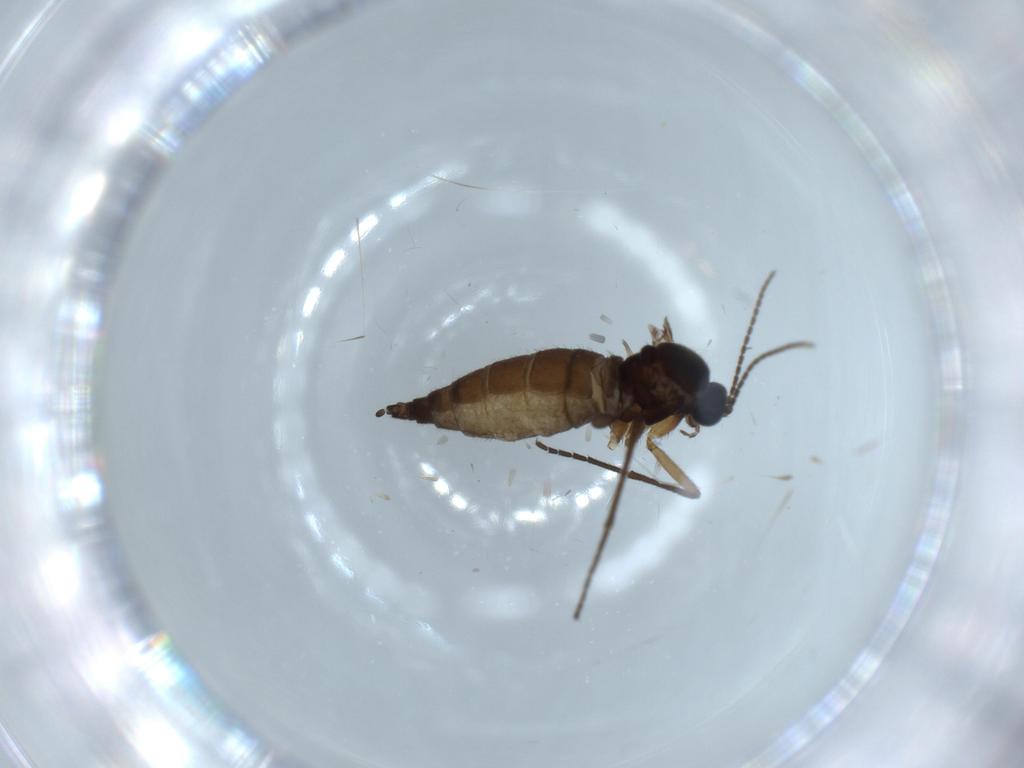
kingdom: Animalia
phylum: Arthropoda
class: Insecta
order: Diptera
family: Sciaridae
